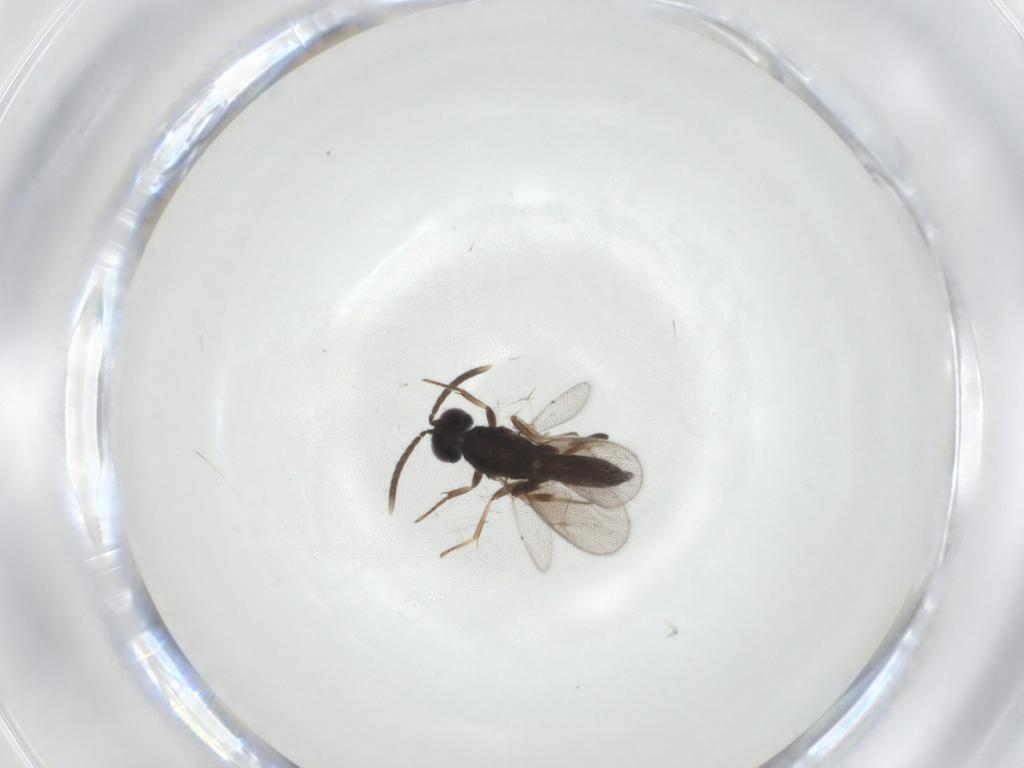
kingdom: Animalia
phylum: Arthropoda
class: Insecta
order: Hymenoptera
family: Eupelmidae
